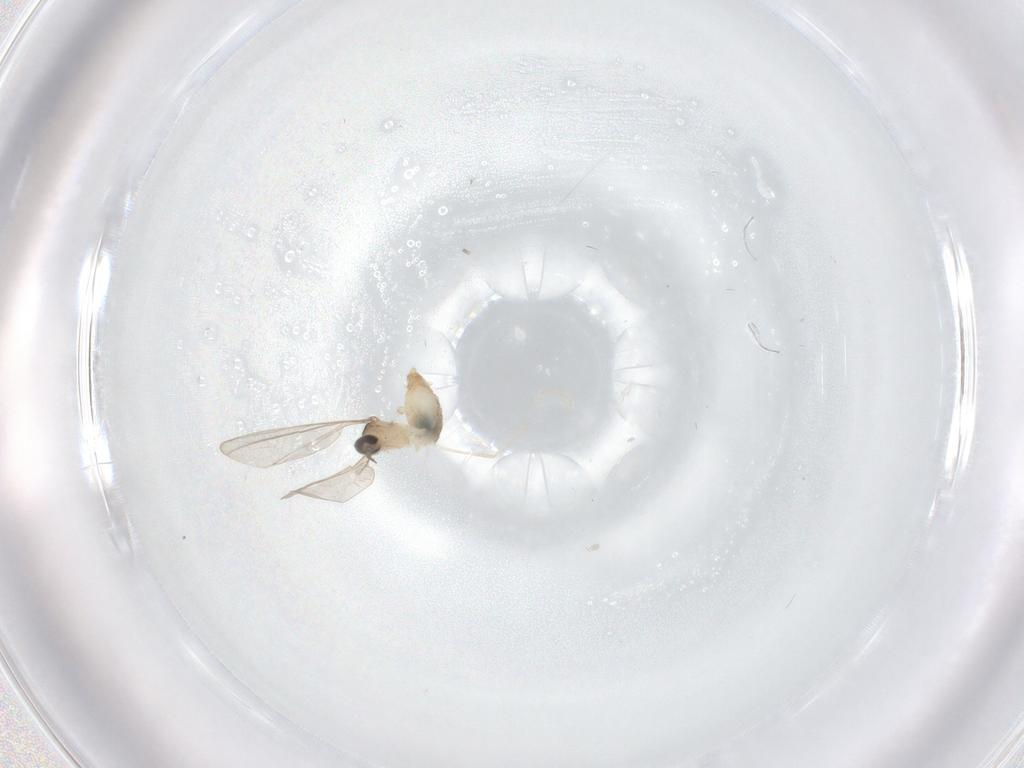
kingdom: Animalia
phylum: Arthropoda
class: Insecta
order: Diptera
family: Cecidomyiidae
